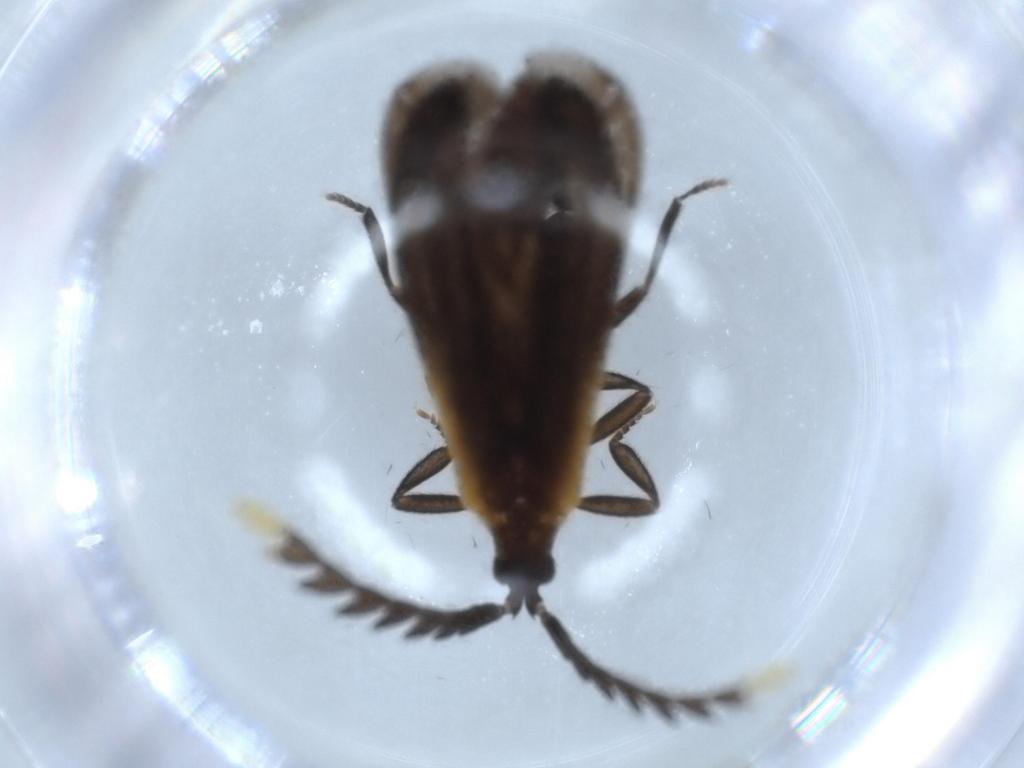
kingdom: Animalia
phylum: Arthropoda
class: Insecta
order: Coleoptera
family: Lycidae
